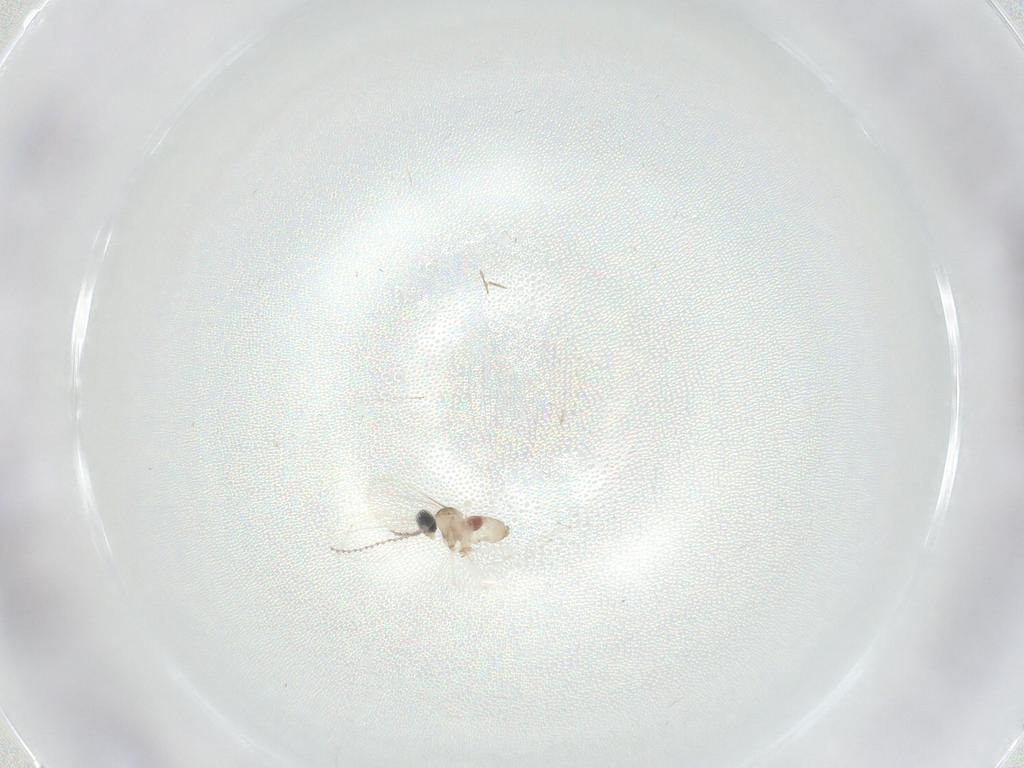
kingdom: Animalia
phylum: Arthropoda
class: Insecta
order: Diptera
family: Cecidomyiidae
